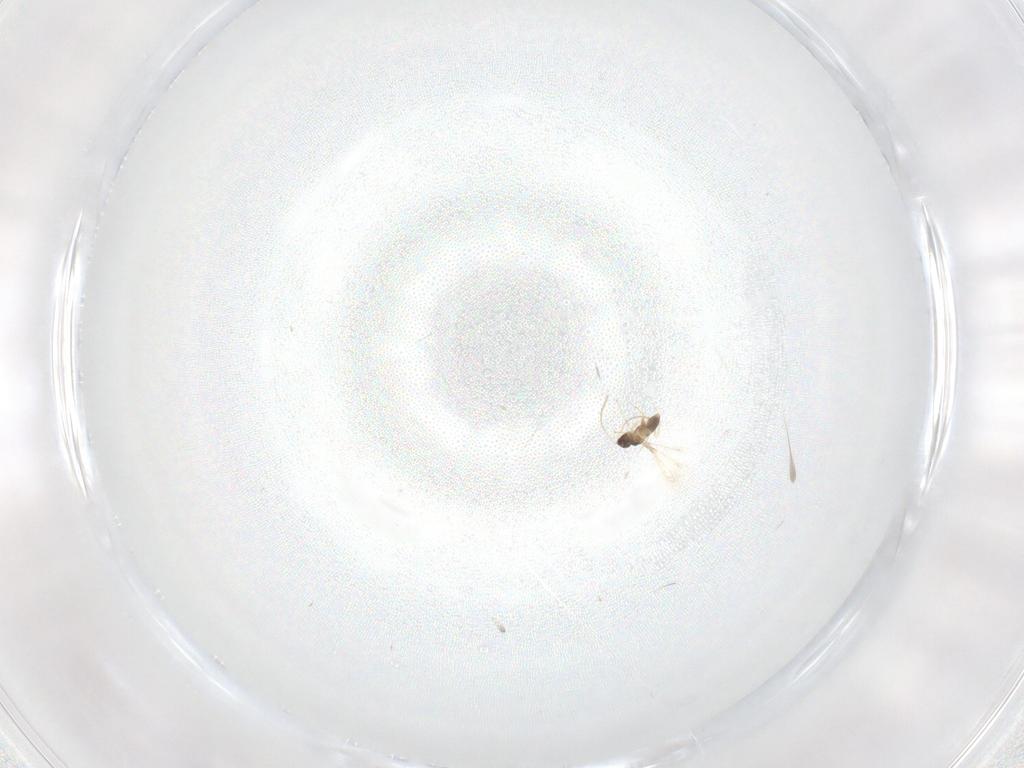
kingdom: Animalia
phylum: Arthropoda
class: Insecta
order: Hymenoptera
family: Mymaridae
